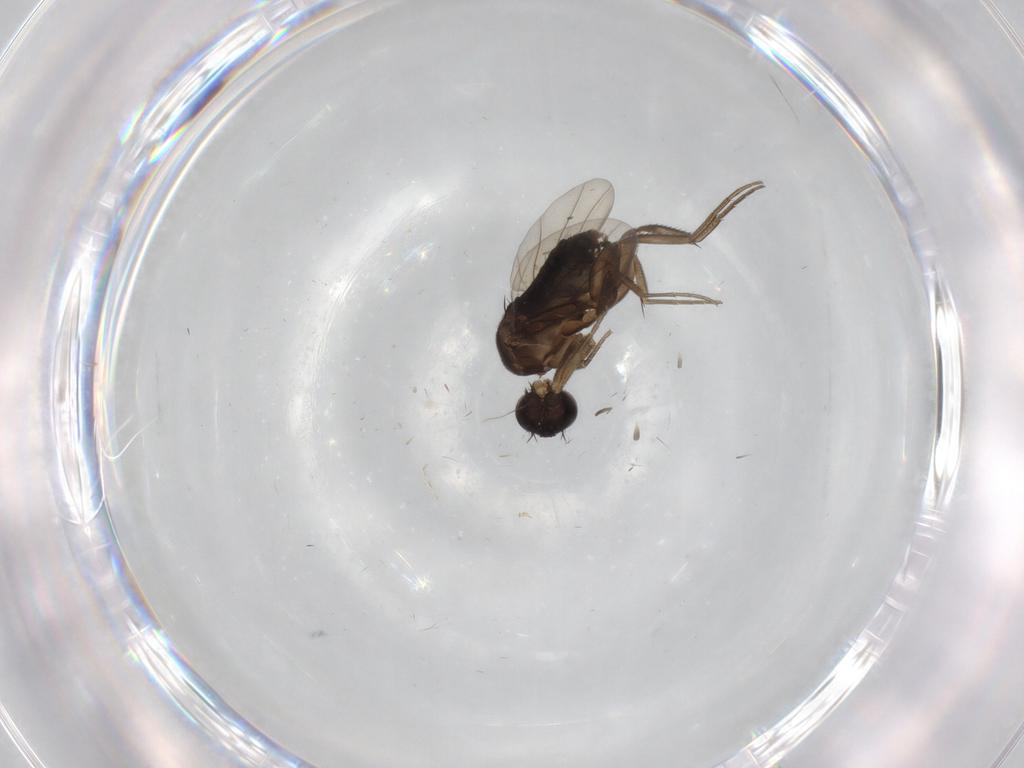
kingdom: Animalia
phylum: Arthropoda
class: Insecta
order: Diptera
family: Phoridae
